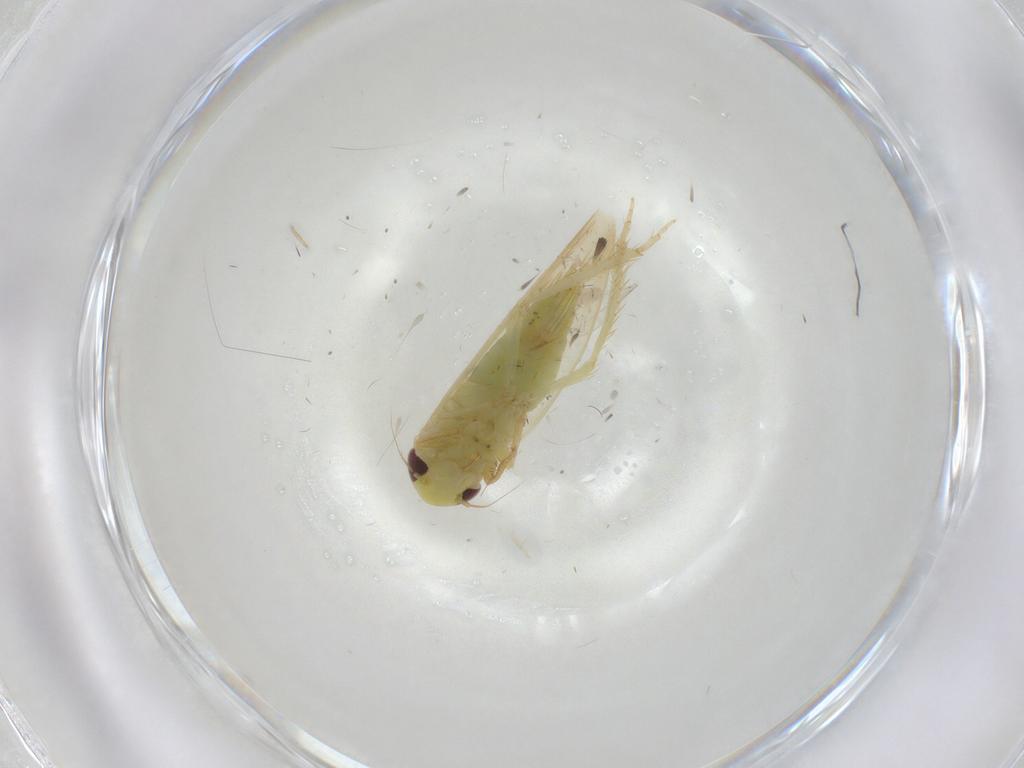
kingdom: Animalia
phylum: Arthropoda
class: Insecta
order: Hemiptera
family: Cicadellidae
